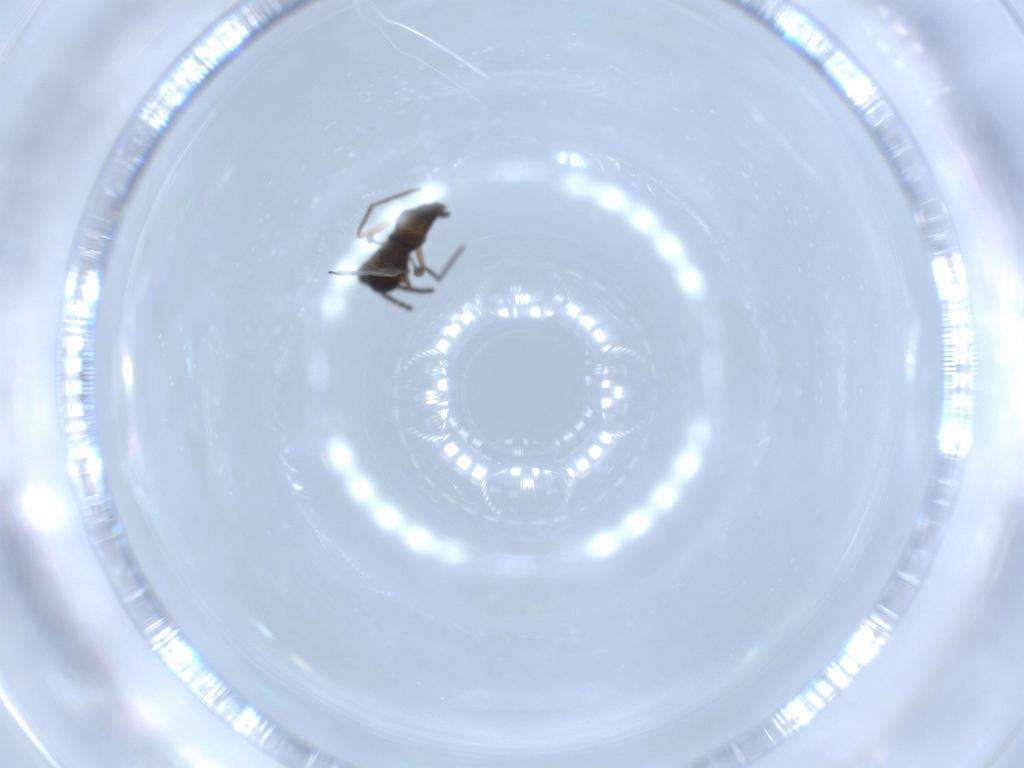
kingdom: Animalia
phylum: Arthropoda
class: Insecta
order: Diptera
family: Sciaridae
